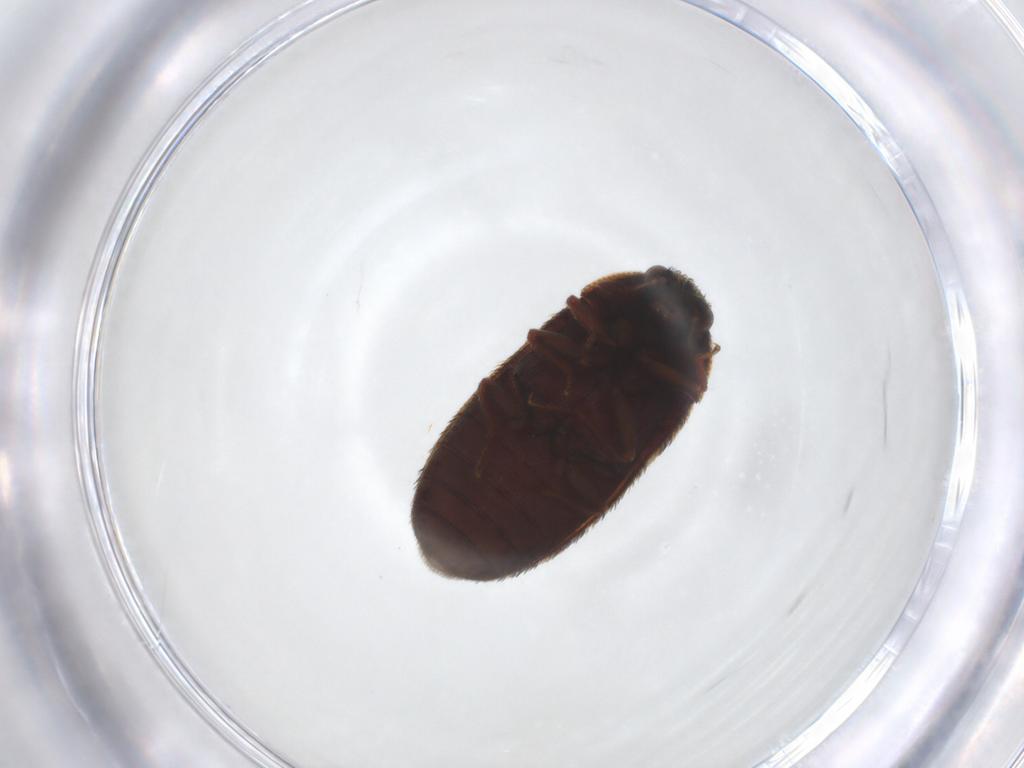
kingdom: Animalia
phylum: Arthropoda
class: Insecta
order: Coleoptera
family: Dermestidae
